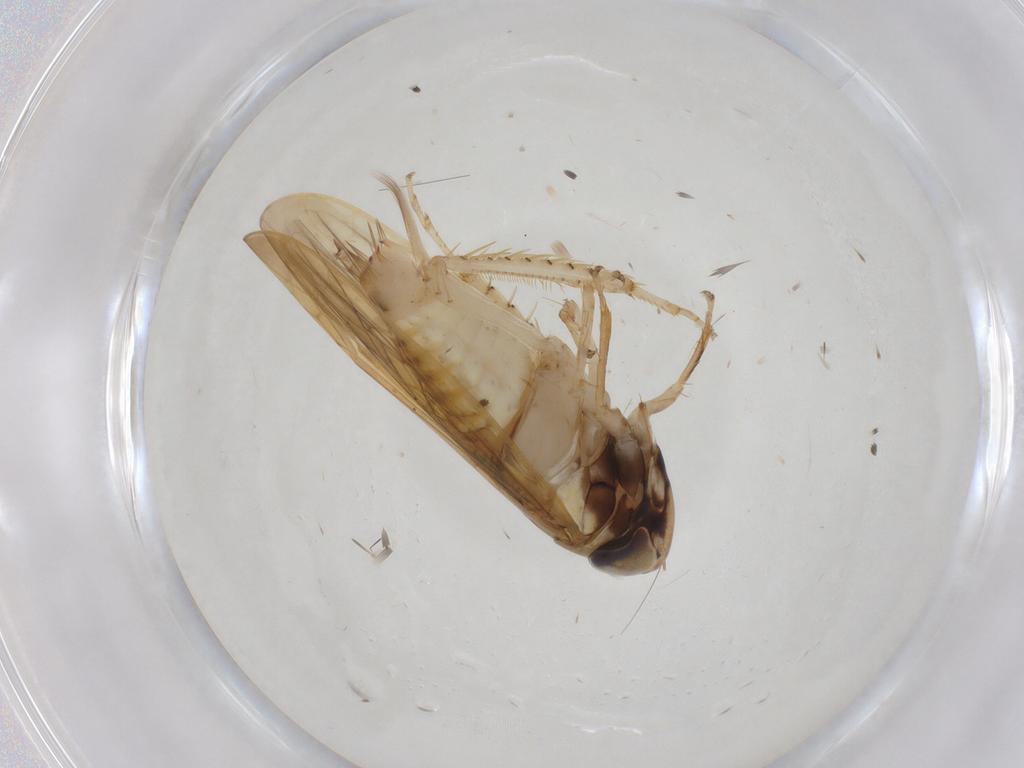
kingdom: Animalia
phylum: Arthropoda
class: Insecta
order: Hemiptera
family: Cicadellidae
